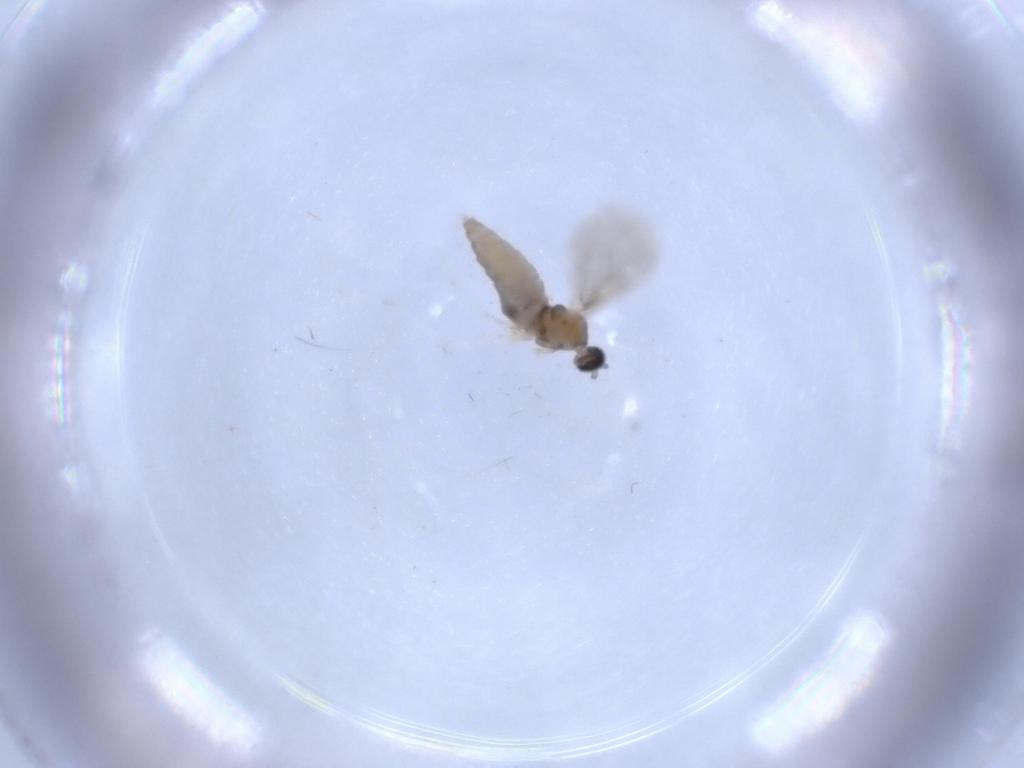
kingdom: Animalia
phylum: Arthropoda
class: Insecta
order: Diptera
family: Cecidomyiidae
